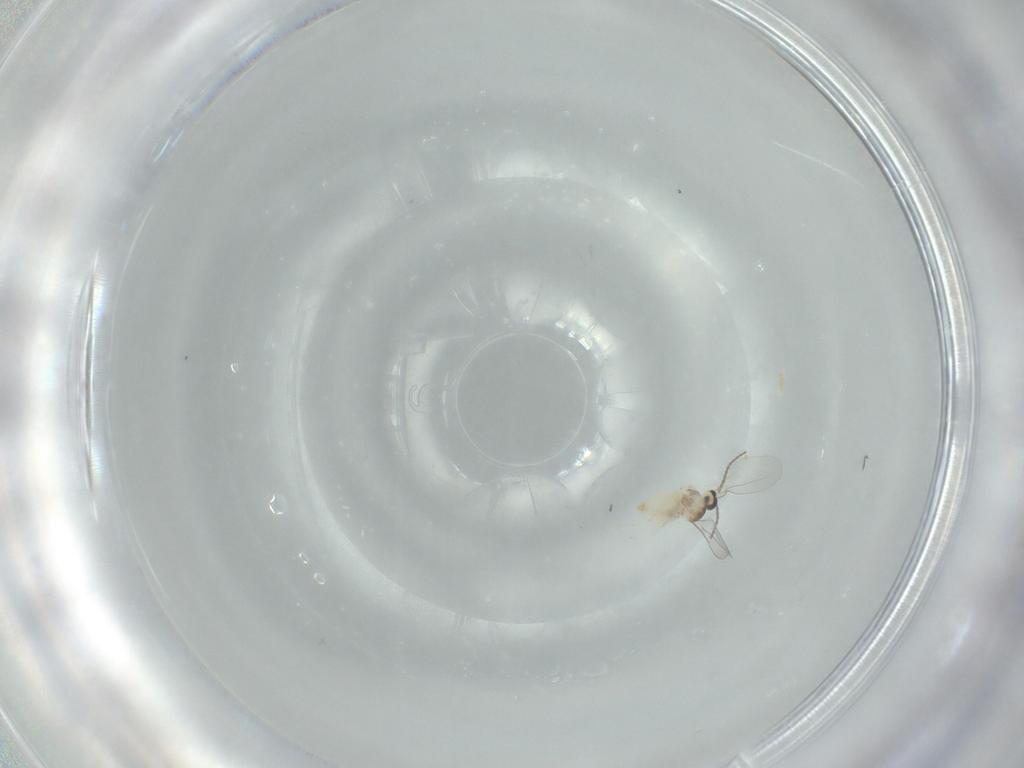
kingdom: Animalia
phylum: Arthropoda
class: Insecta
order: Diptera
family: Cecidomyiidae
